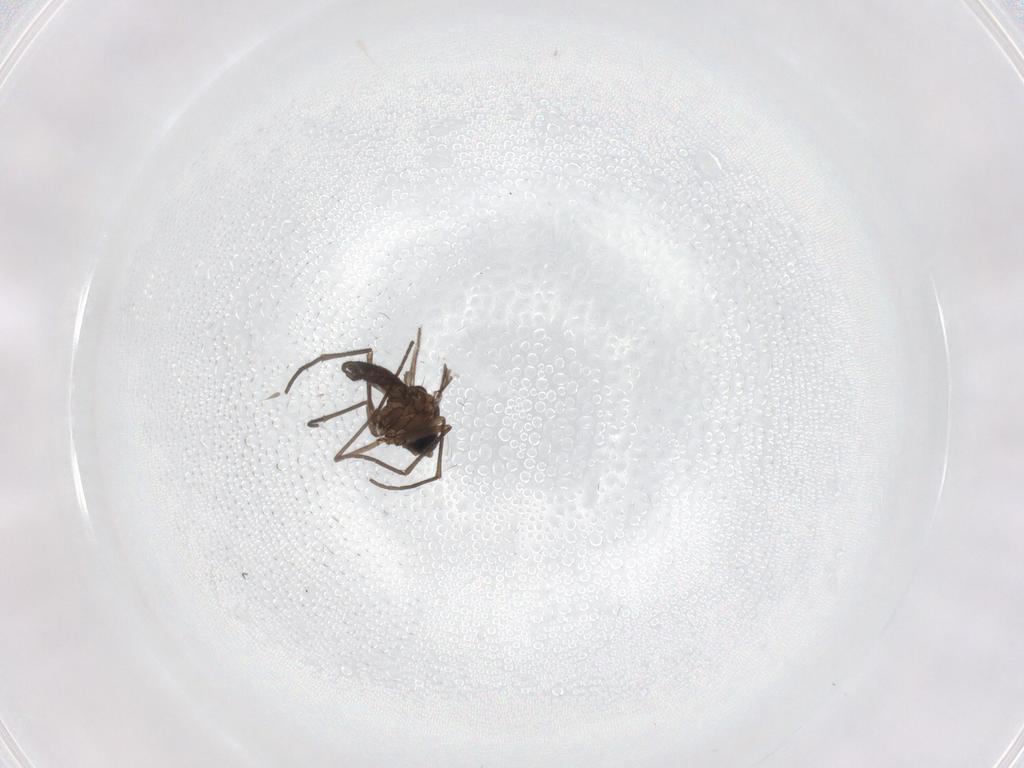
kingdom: Animalia
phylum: Arthropoda
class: Insecta
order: Diptera
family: Sciaridae
